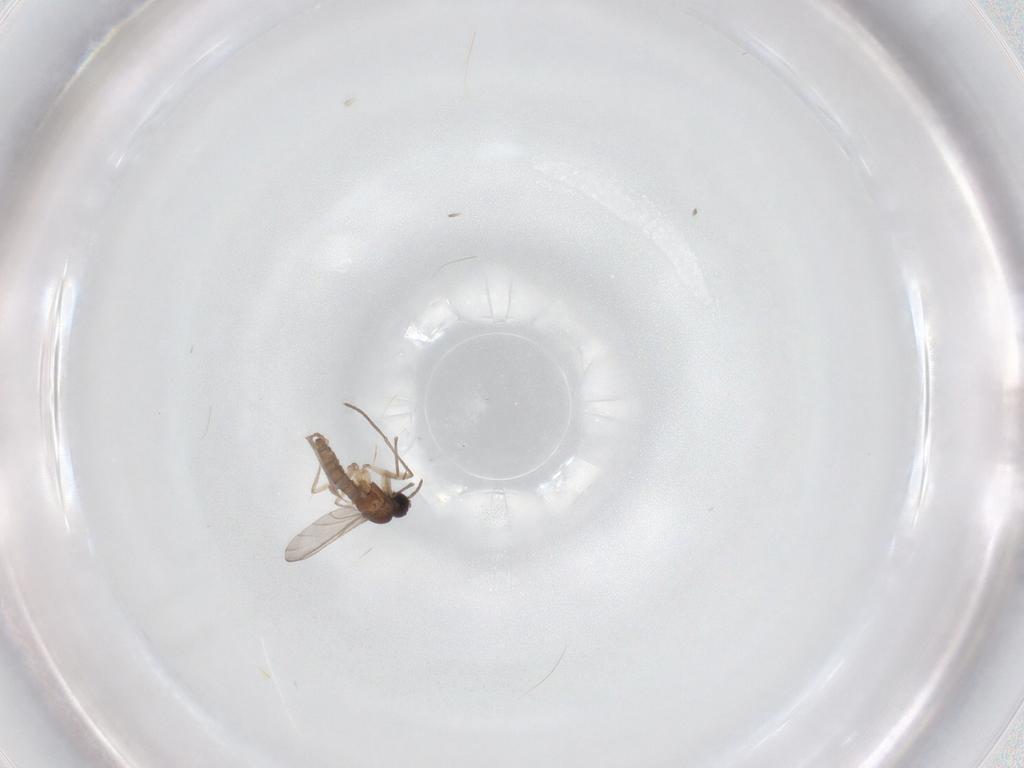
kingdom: Animalia
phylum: Arthropoda
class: Insecta
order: Diptera
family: Sciaridae
